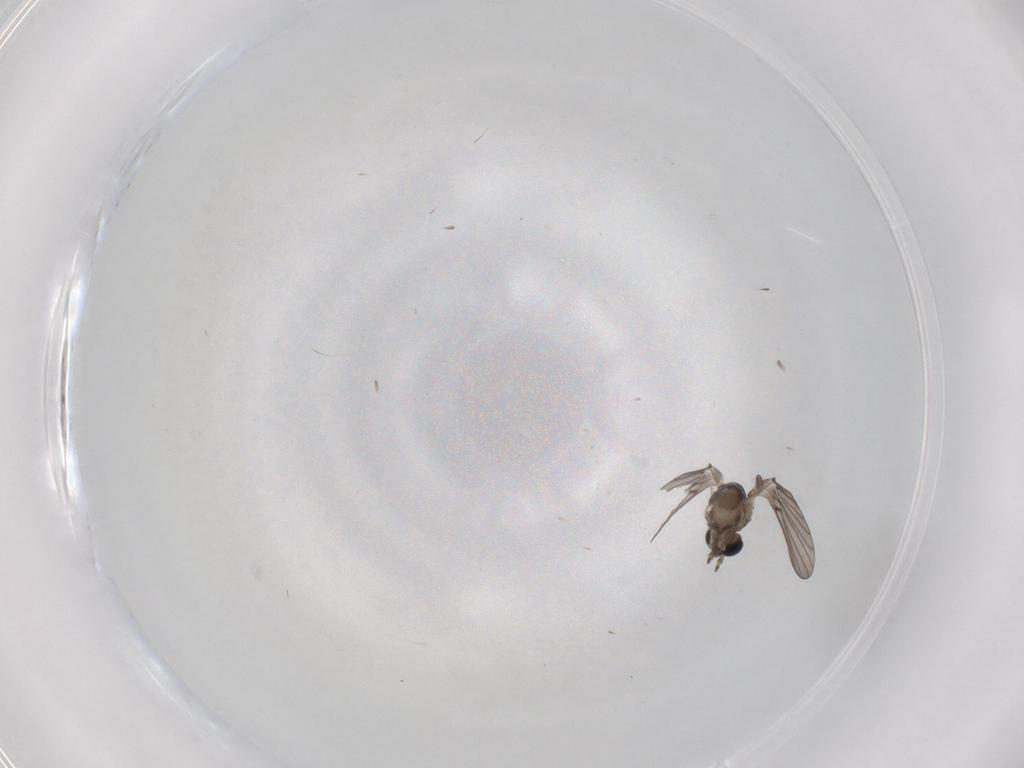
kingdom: Animalia
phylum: Arthropoda
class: Insecta
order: Diptera
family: Psychodidae
